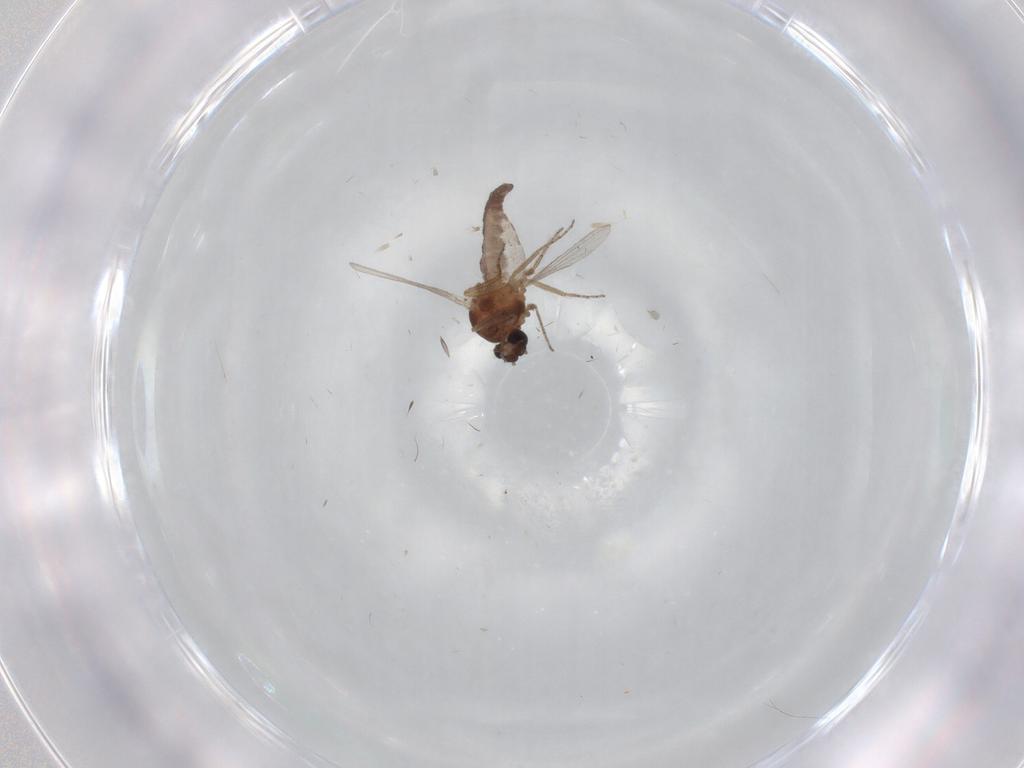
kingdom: Animalia
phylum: Arthropoda
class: Insecta
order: Diptera
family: Ceratopogonidae
